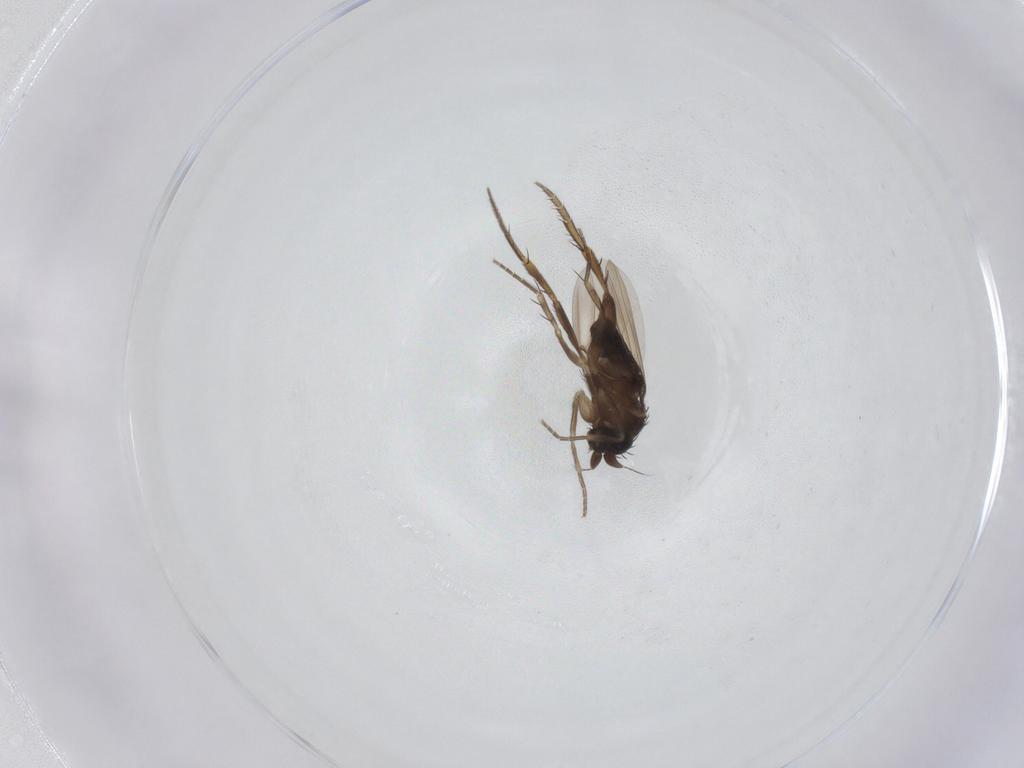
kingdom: Animalia
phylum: Arthropoda
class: Insecta
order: Diptera
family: Phoridae
